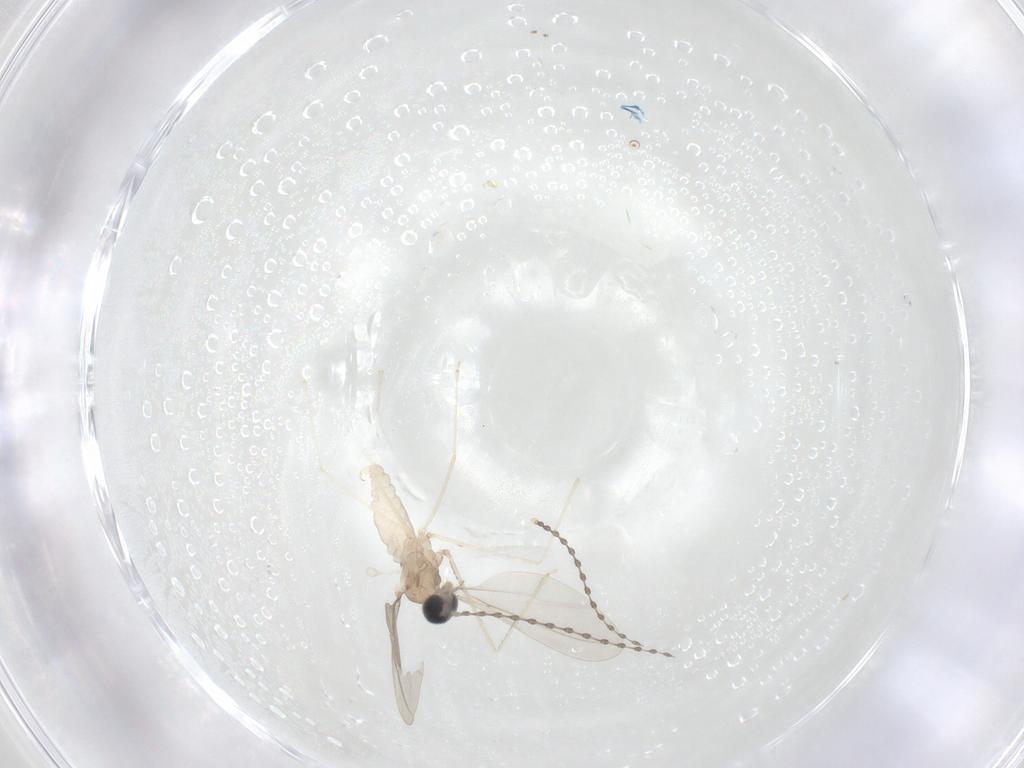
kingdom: Animalia
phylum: Arthropoda
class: Insecta
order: Diptera
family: Cecidomyiidae
